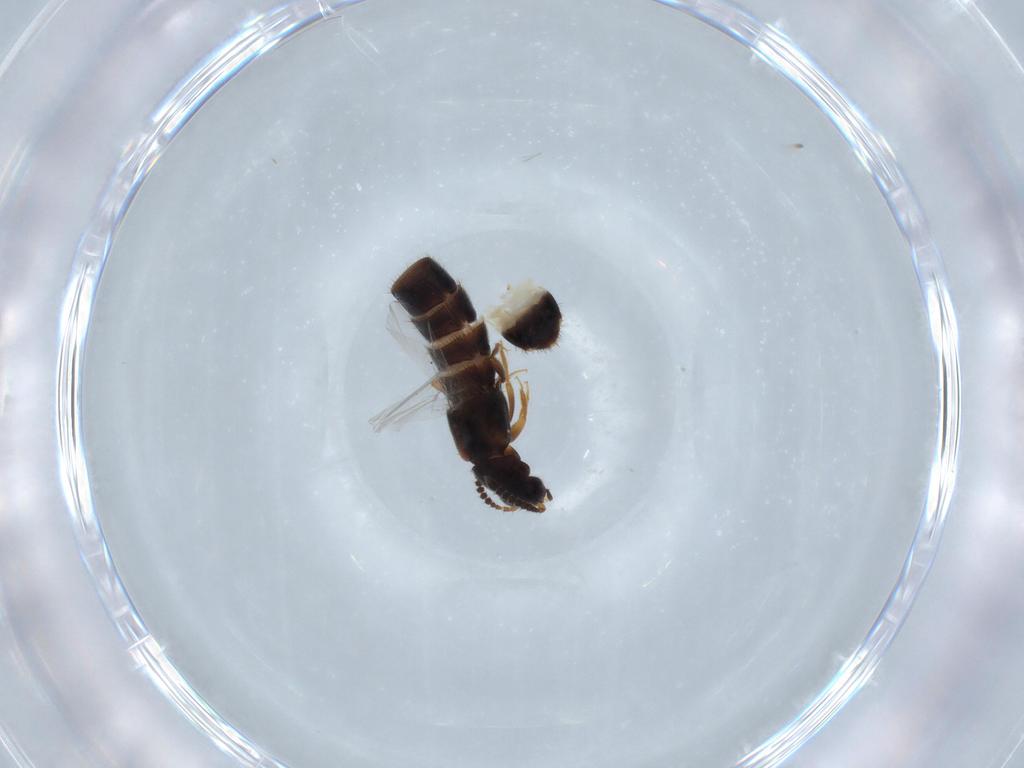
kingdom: Animalia
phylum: Arthropoda
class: Insecta
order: Coleoptera
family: Staphylinidae
